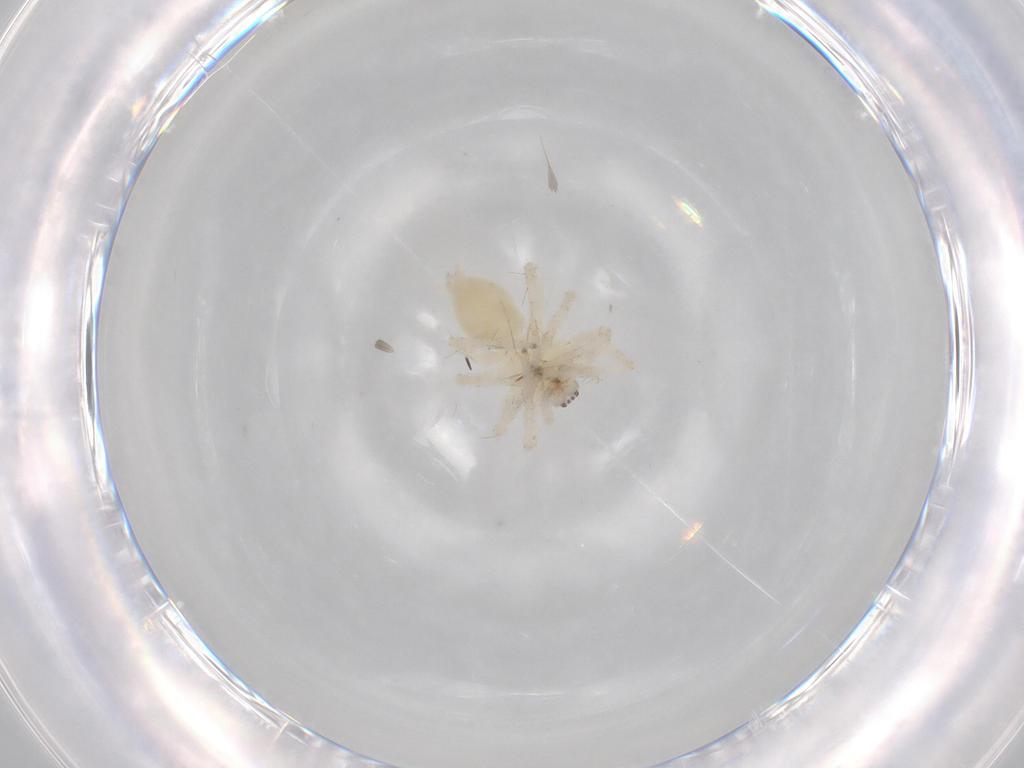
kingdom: Animalia
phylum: Arthropoda
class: Arachnida
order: Araneae
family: Anyphaenidae
